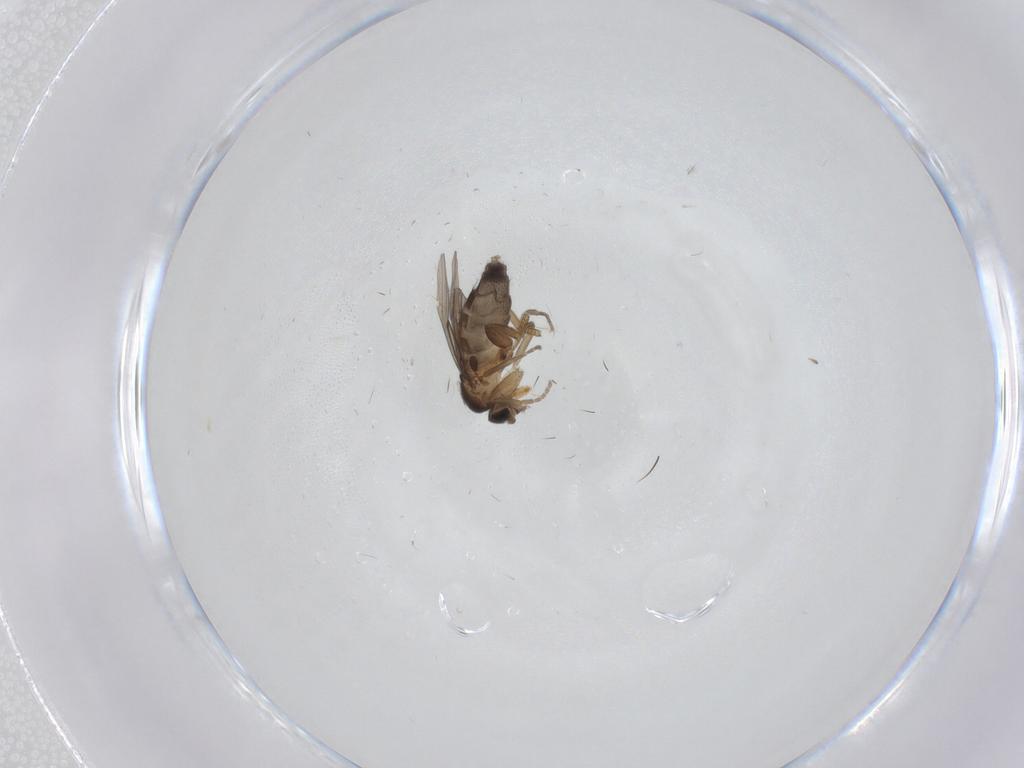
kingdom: Animalia
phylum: Arthropoda
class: Insecta
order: Diptera
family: Phoridae
